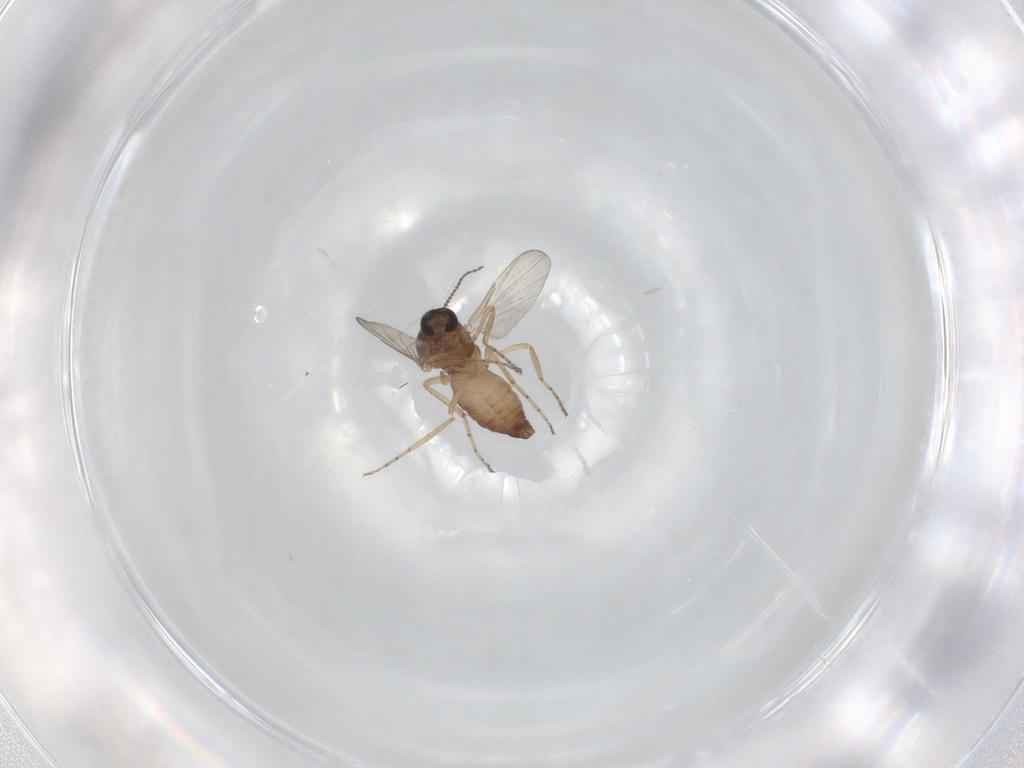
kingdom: Animalia
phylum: Arthropoda
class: Insecta
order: Diptera
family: Ceratopogonidae
